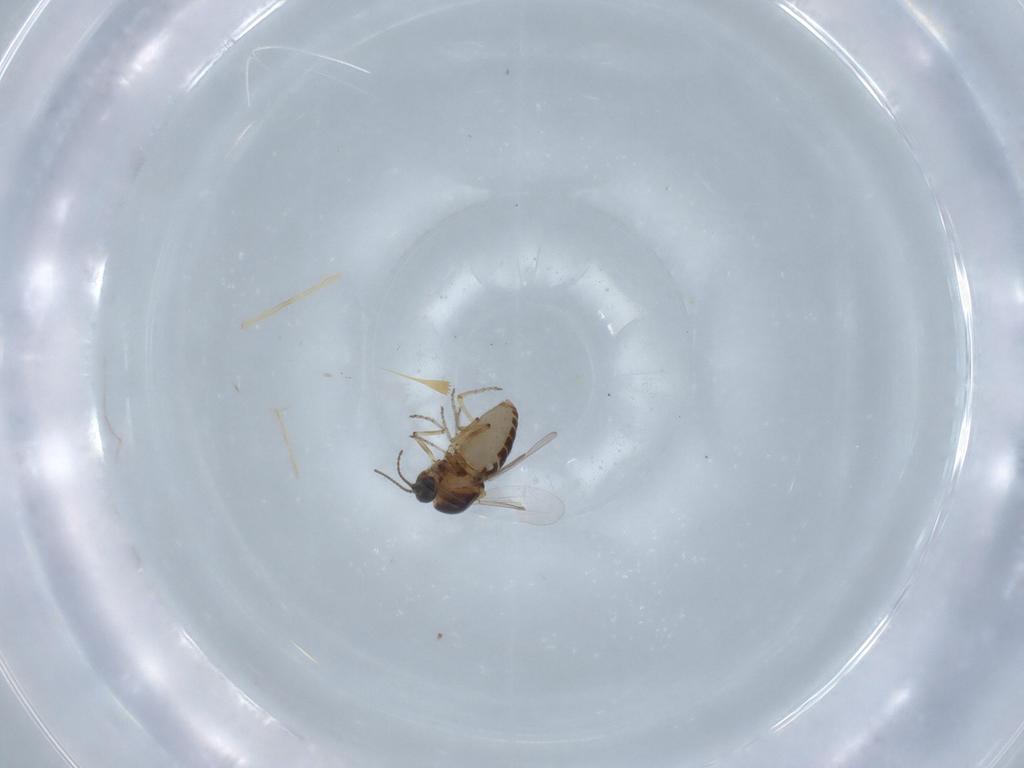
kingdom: Animalia
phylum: Arthropoda
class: Insecta
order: Diptera
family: Ceratopogonidae
